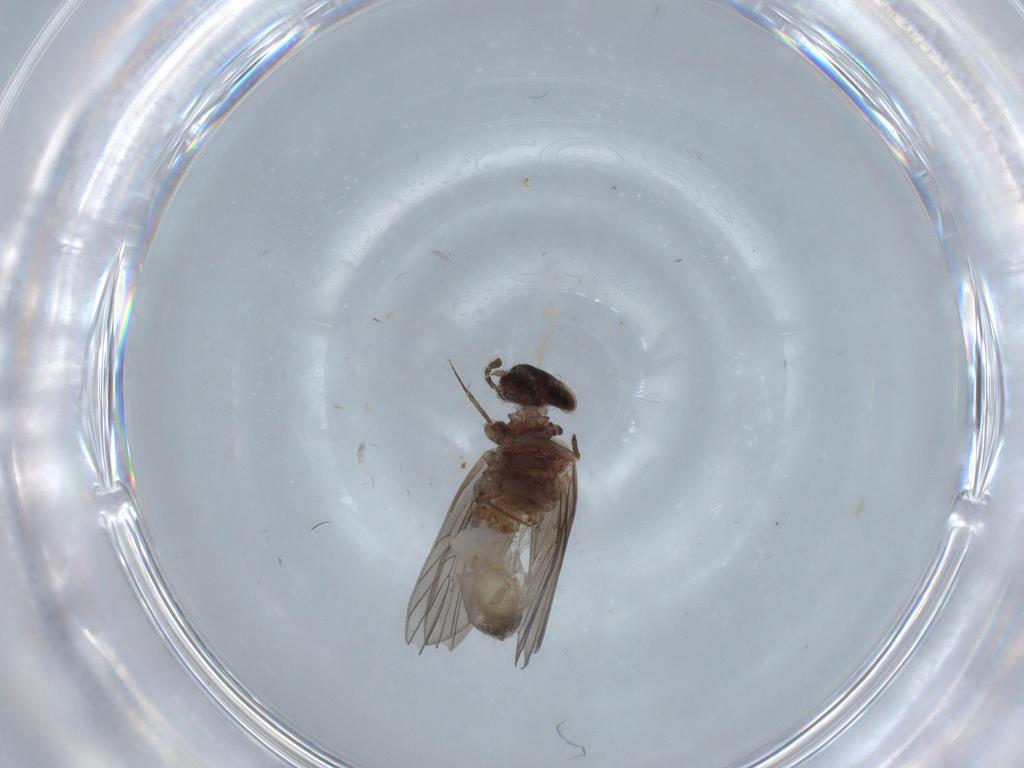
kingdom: Animalia
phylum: Arthropoda
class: Insecta
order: Psocodea
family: Lepidopsocidae
